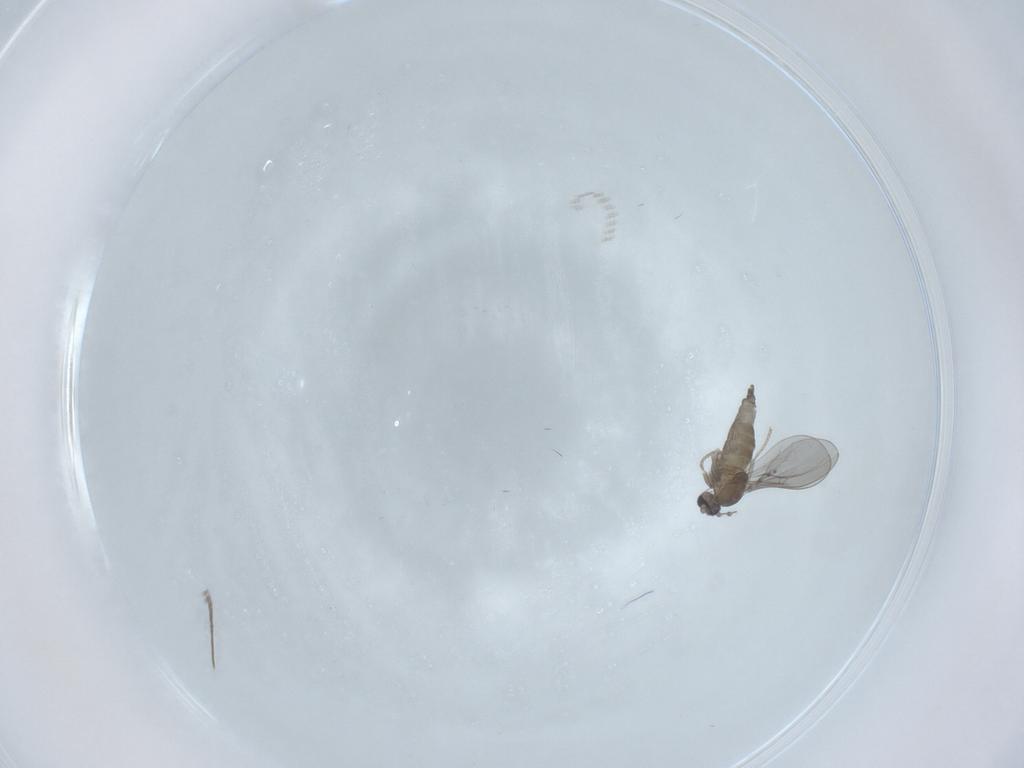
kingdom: Animalia
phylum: Arthropoda
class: Insecta
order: Diptera
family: Cecidomyiidae
